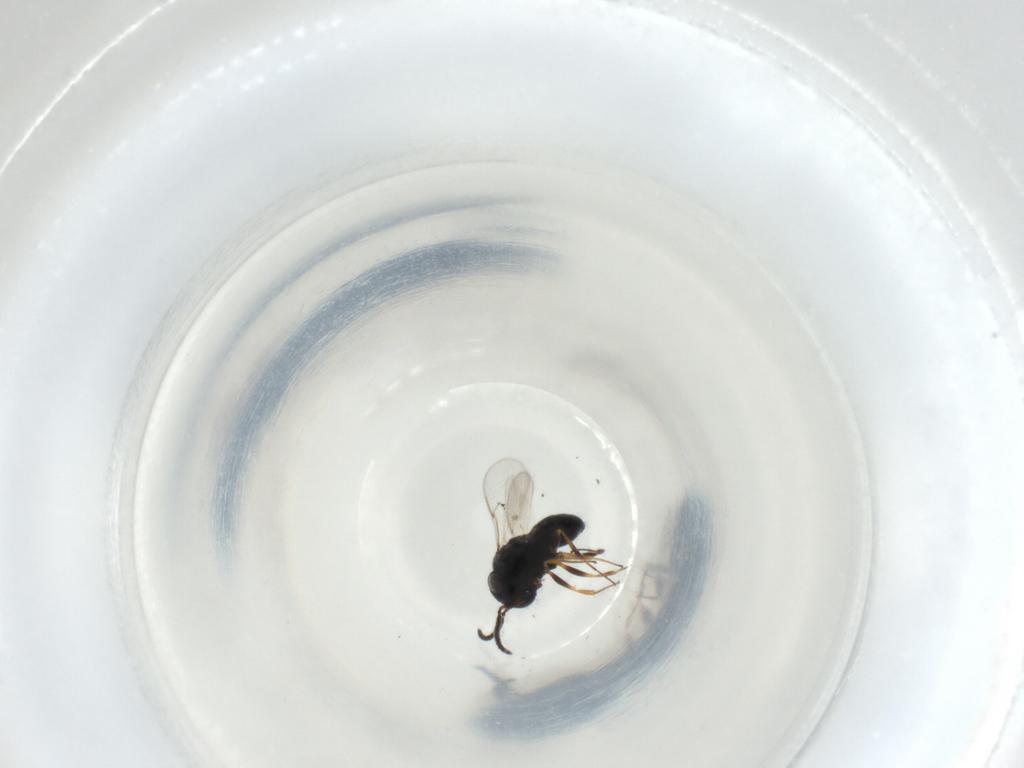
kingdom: Animalia
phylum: Arthropoda
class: Insecta
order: Hymenoptera
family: Scelionidae
